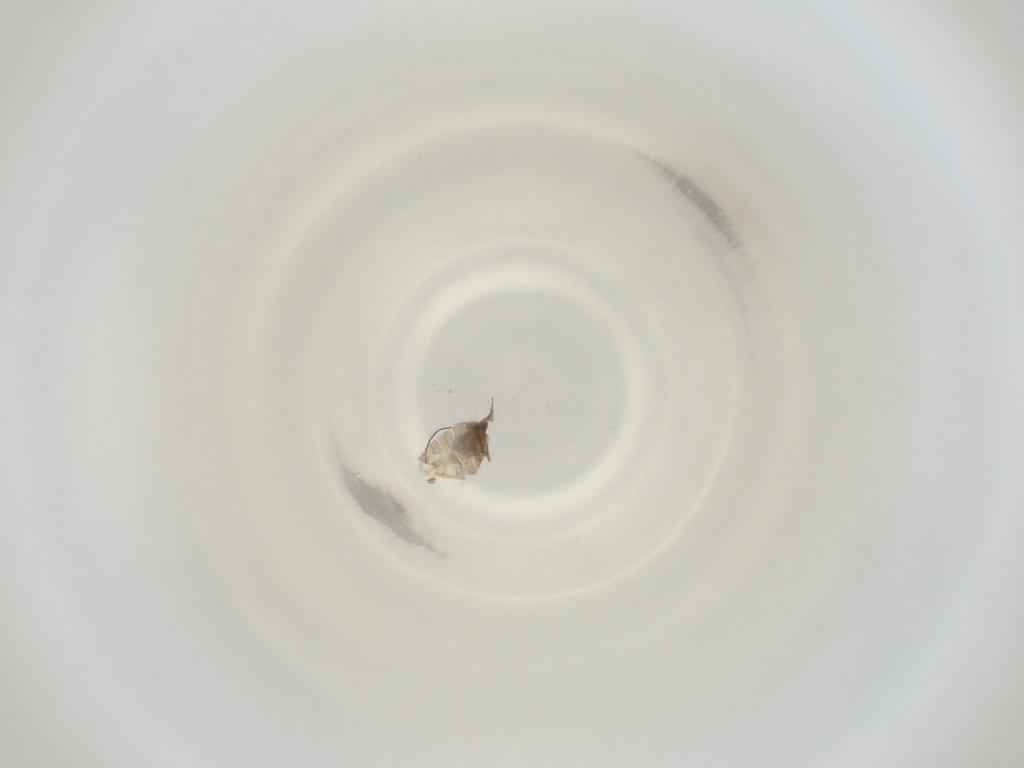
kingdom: Animalia
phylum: Arthropoda
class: Insecta
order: Diptera
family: Cecidomyiidae
